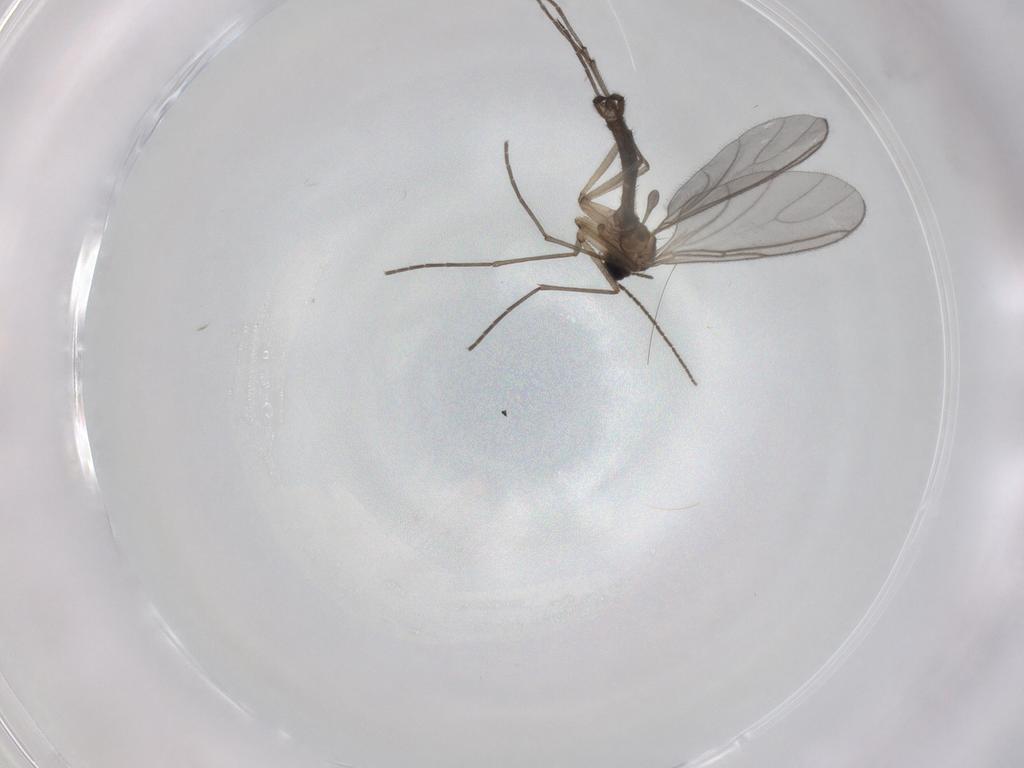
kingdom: Animalia
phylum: Arthropoda
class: Insecta
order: Diptera
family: Sciaridae
